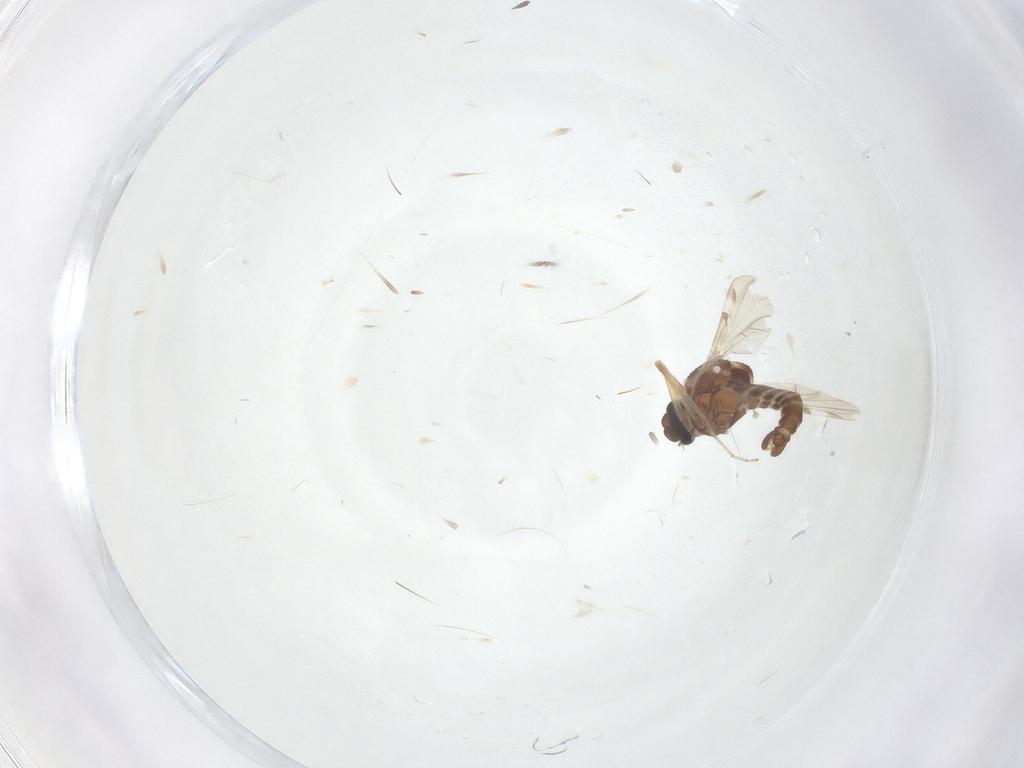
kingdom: Animalia
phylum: Arthropoda
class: Insecta
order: Diptera
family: Ceratopogonidae
